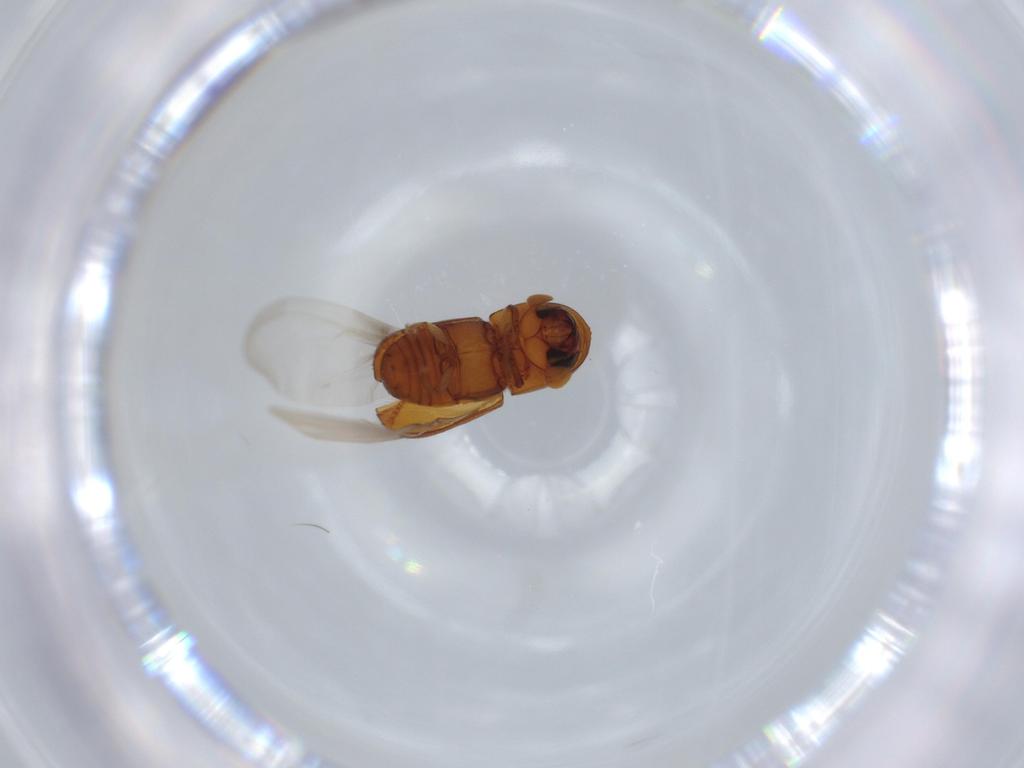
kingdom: Animalia
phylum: Arthropoda
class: Insecta
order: Coleoptera
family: Curculionidae
